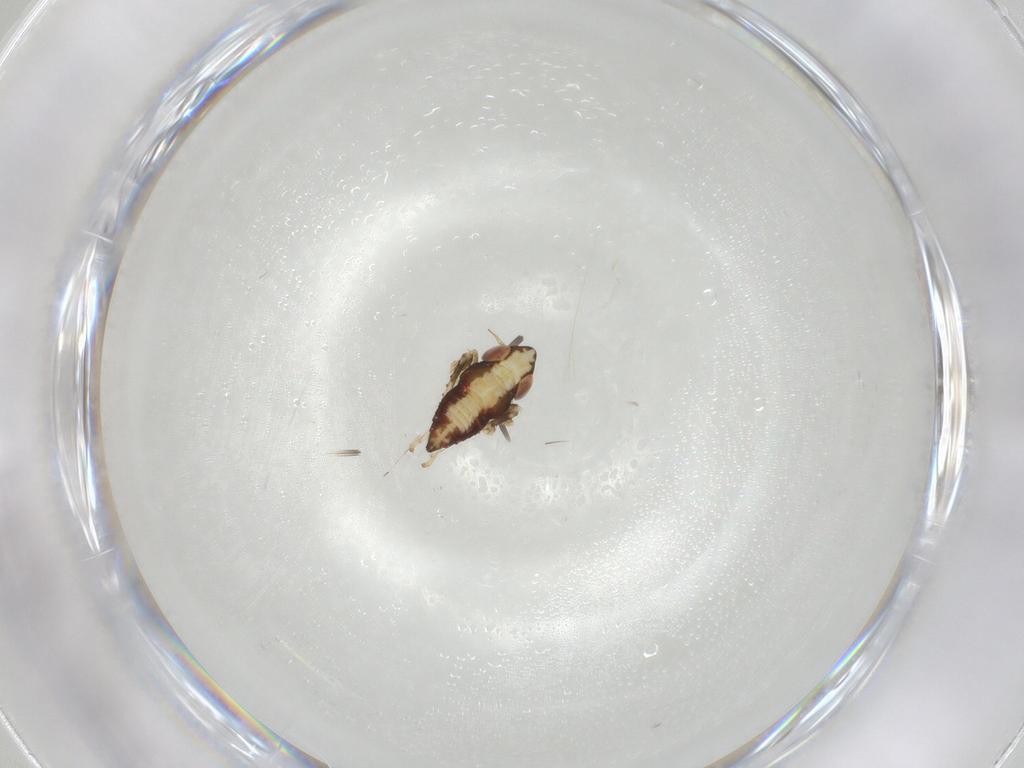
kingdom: Animalia
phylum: Arthropoda
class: Insecta
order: Hemiptera
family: Cicadellidae
